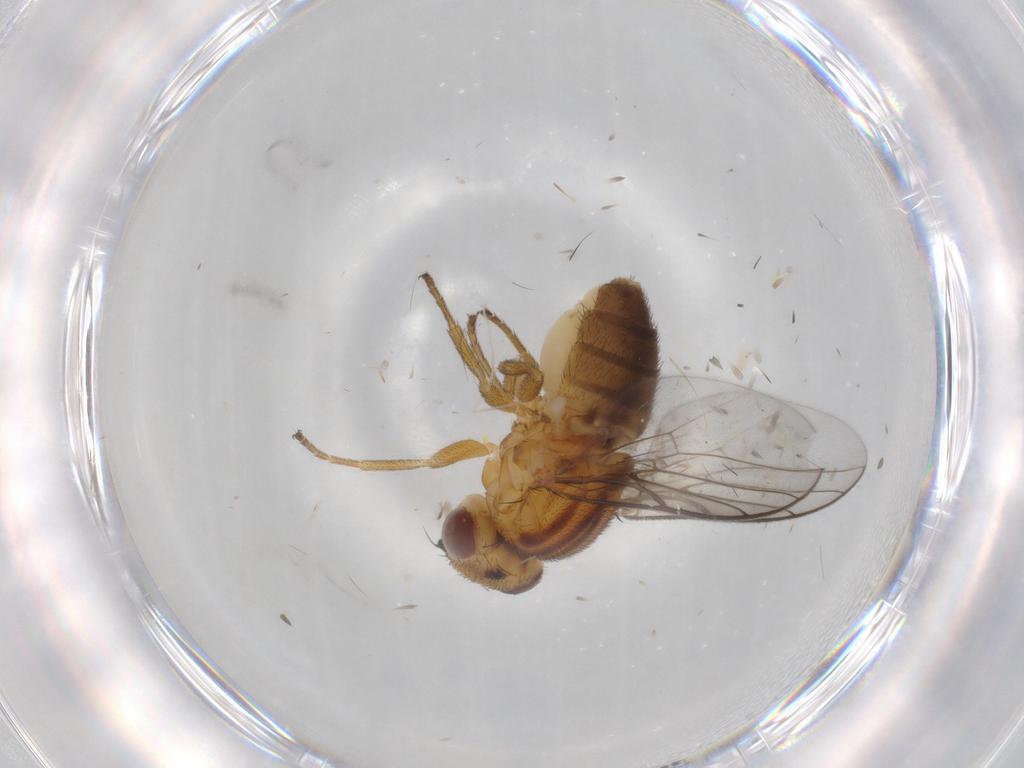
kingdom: Animalia
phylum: Arthropoda
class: Insecta
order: Diptera
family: Chloropidae
